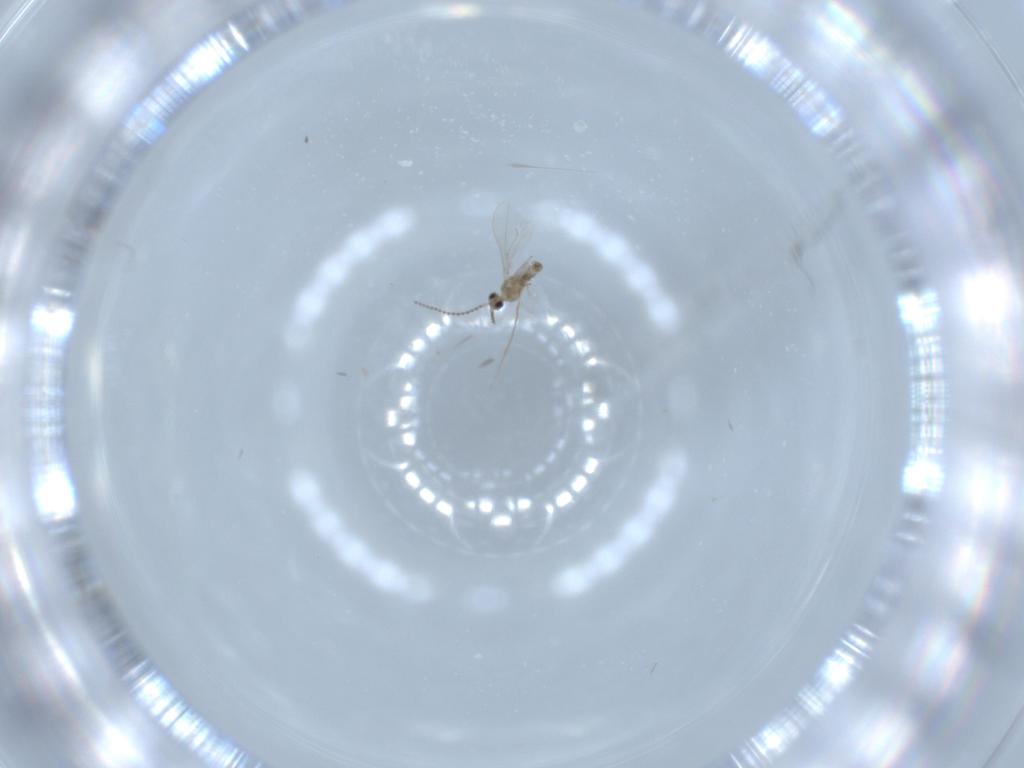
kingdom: Animalia
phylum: Arthropoda
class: Insecta
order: Diptera
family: Cecidomyiidae
